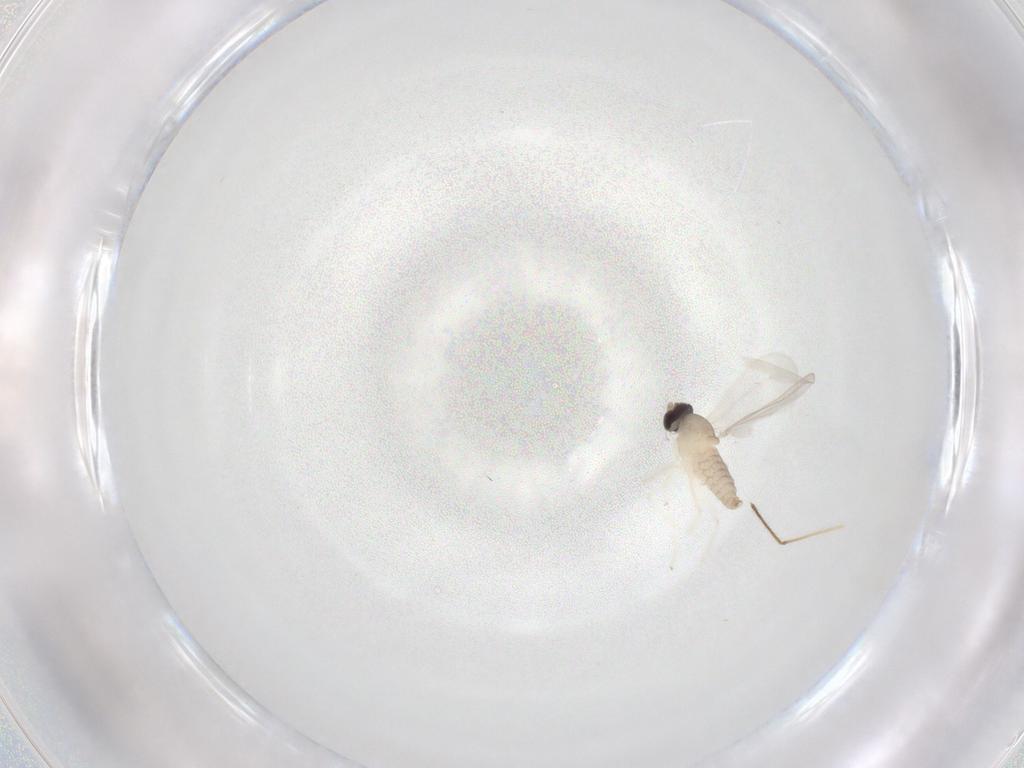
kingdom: Animalia
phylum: Arthropoda
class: Insecta
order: Diptera
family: Cecidomyiidae
